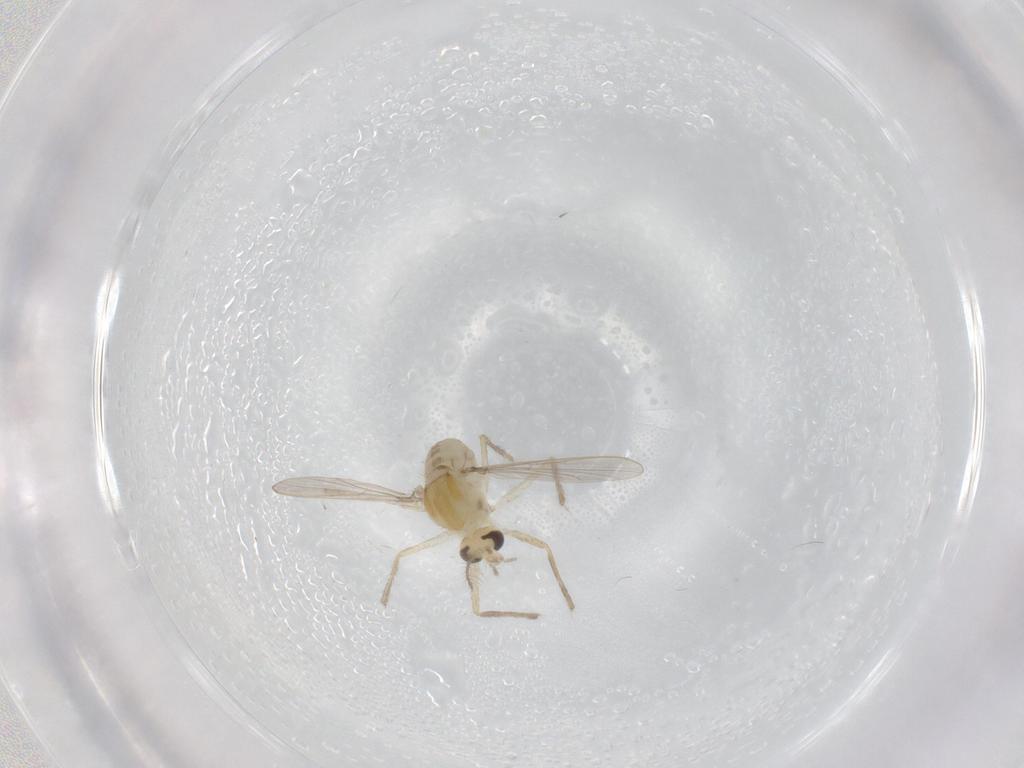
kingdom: Animalia
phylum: Arthropoda
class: Insecta
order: Diptera
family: Chironomidae
